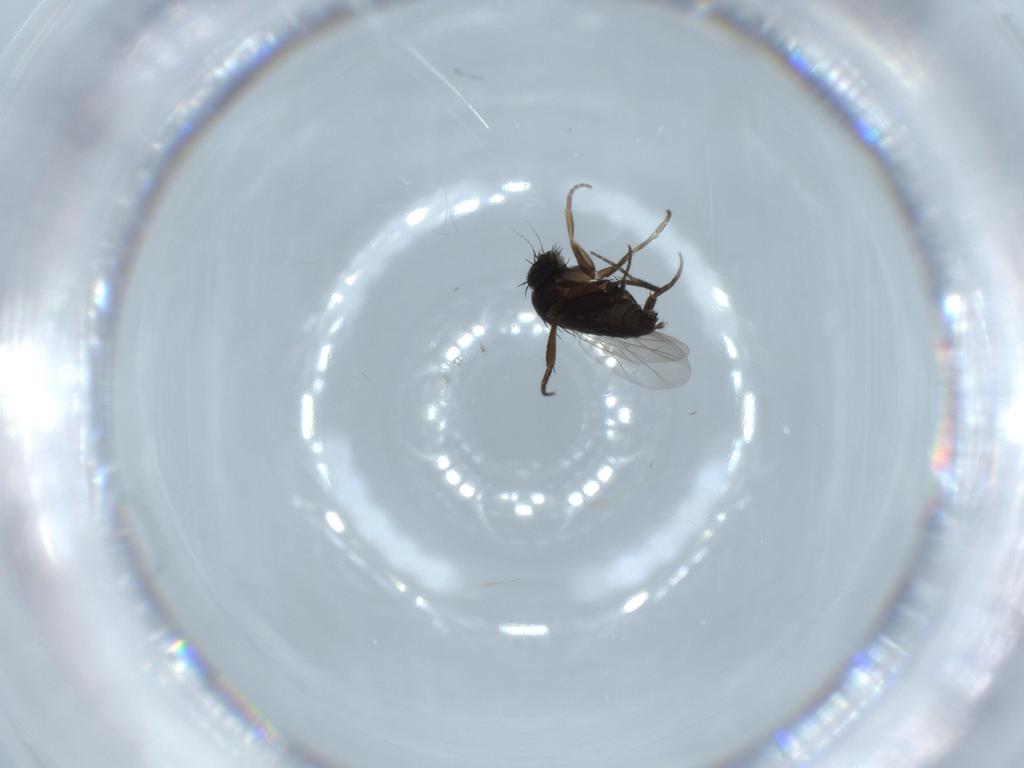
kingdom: Animalia
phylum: Arthropoda
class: Insecta
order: Diptera
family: Phoridae
